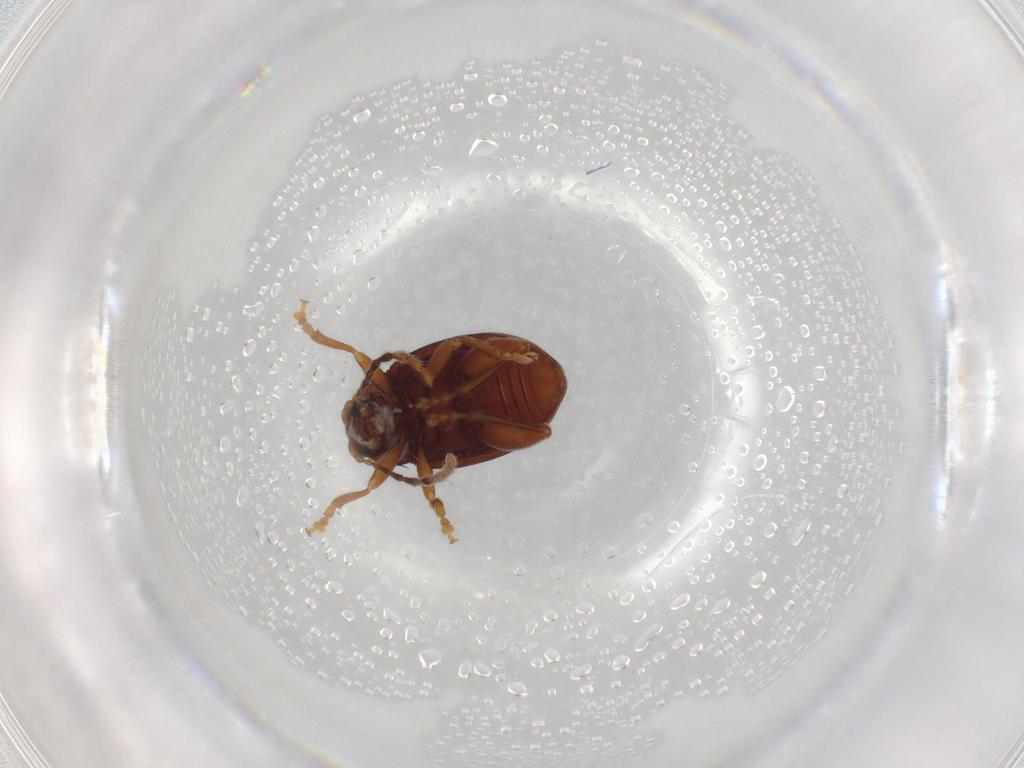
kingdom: Animalia
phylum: Arthropoda
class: Insecta
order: Coleoptera
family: Chrysomelidae
